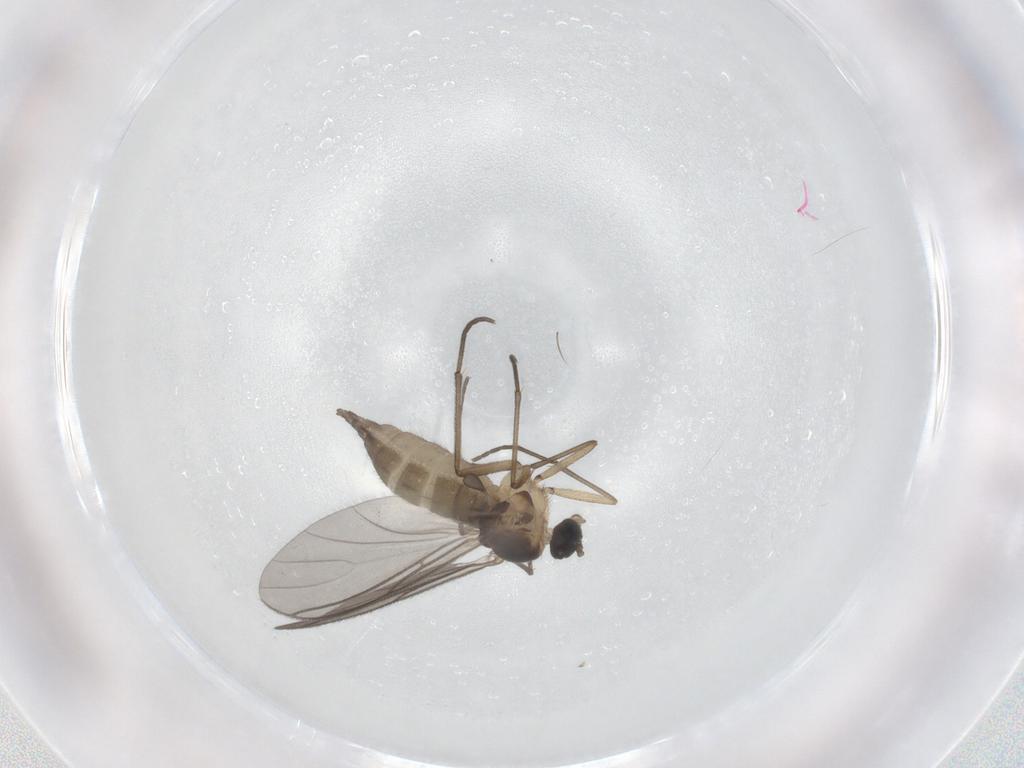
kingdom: Animalia
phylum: Arthropoda
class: Insecta
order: Diptera
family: Sciaridae
